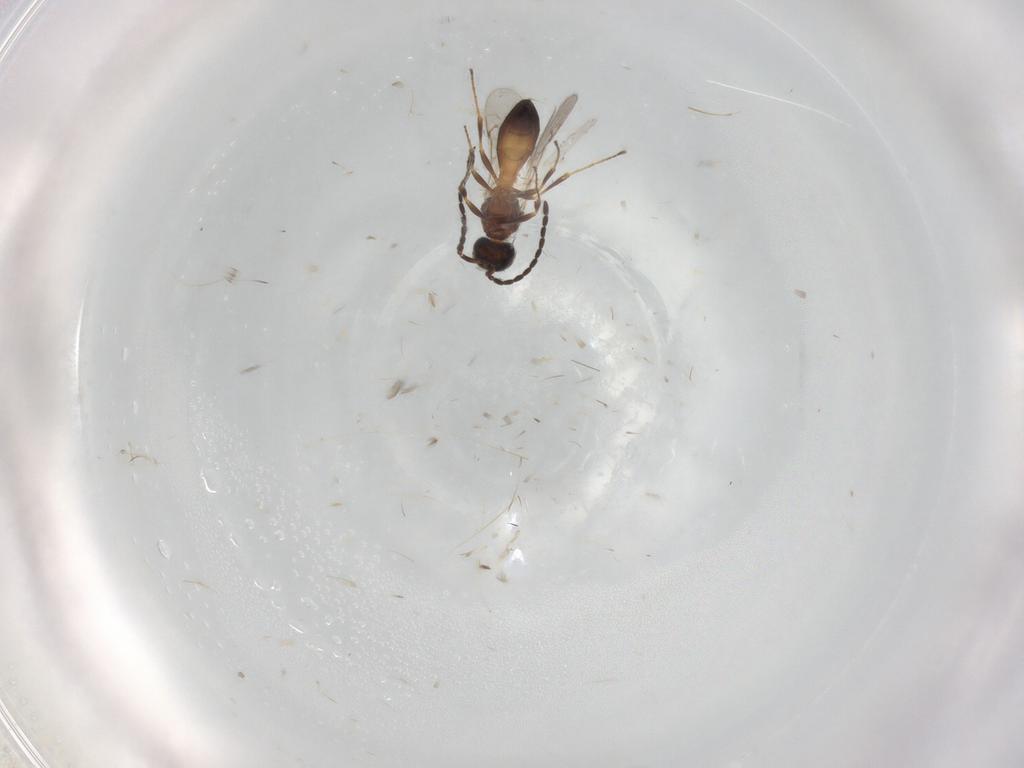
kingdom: Animalia
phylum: Arthropoda
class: Insecta
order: Hymenoptera
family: Scelionidae
